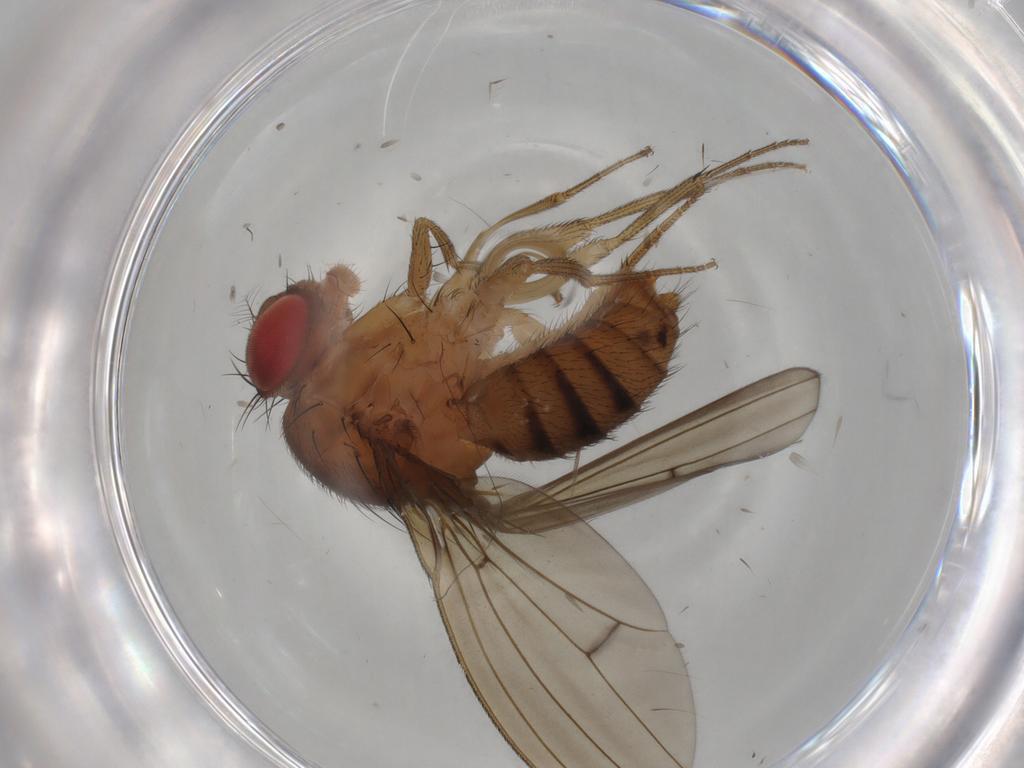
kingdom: Animalia
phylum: Arthropoda
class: Insecta
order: Diptera
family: Drosophilidae
